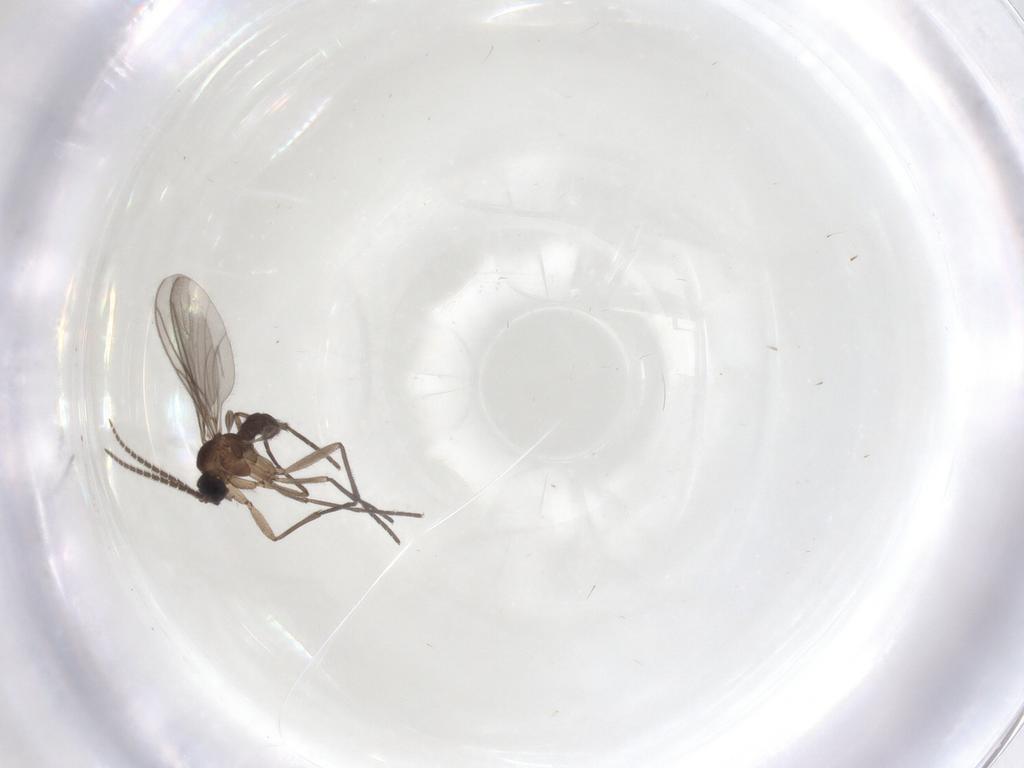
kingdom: Animalia
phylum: Arthropoda
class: Insecta
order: Diptera
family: Sciaridae
